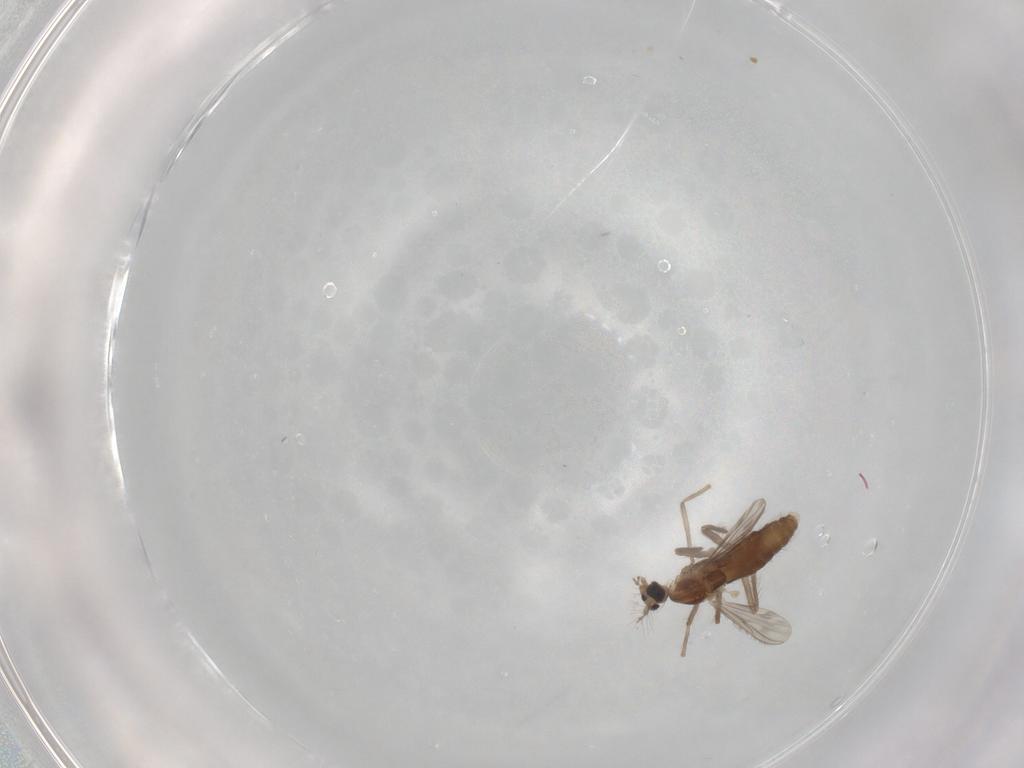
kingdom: Animalia
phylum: Arthropoda
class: Insecta
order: Diptera
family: Chironomidae
